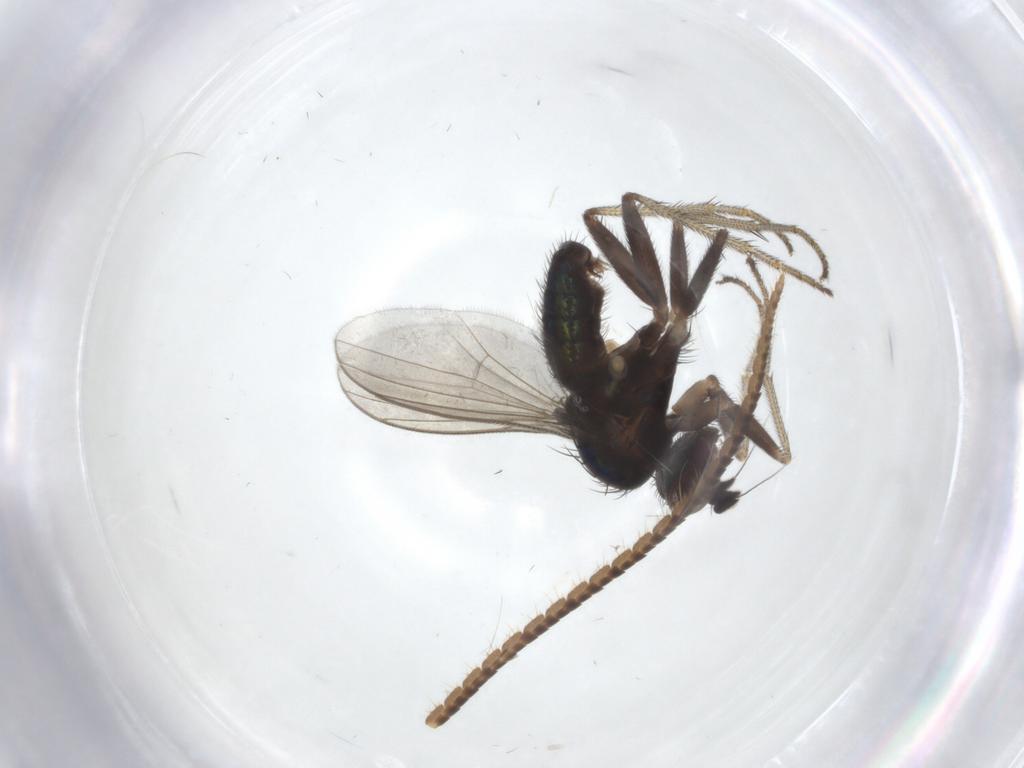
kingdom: Animalia
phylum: Arthropoda
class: Insecta
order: Diptera
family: Dolichopodidae
